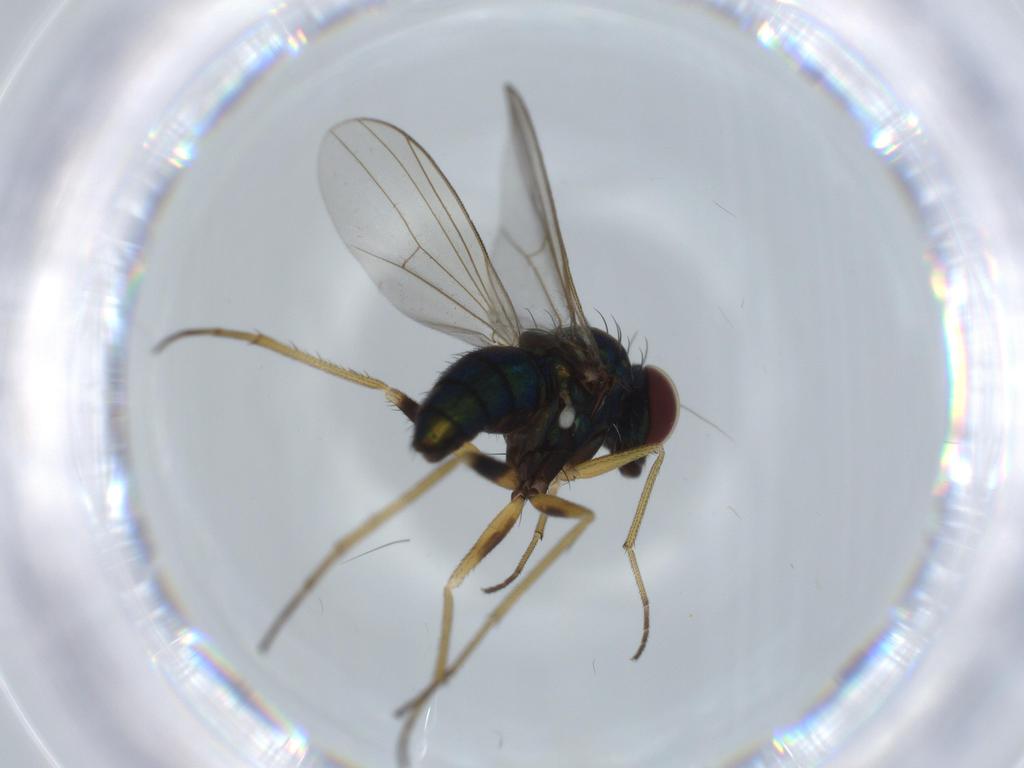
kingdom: Animalia
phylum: Arthropoda
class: Insecta
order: Diptera
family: Dolichopodidae
